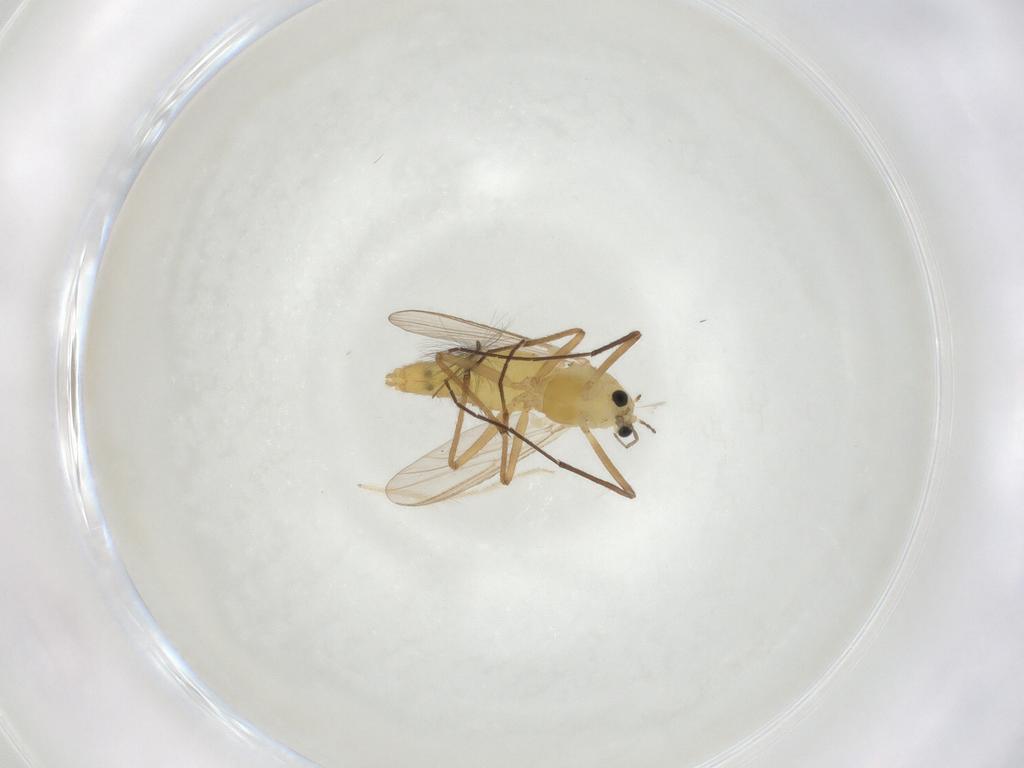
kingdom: Animalia
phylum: Arthropoda
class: Insecta
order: Diptera
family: Chironomidae
